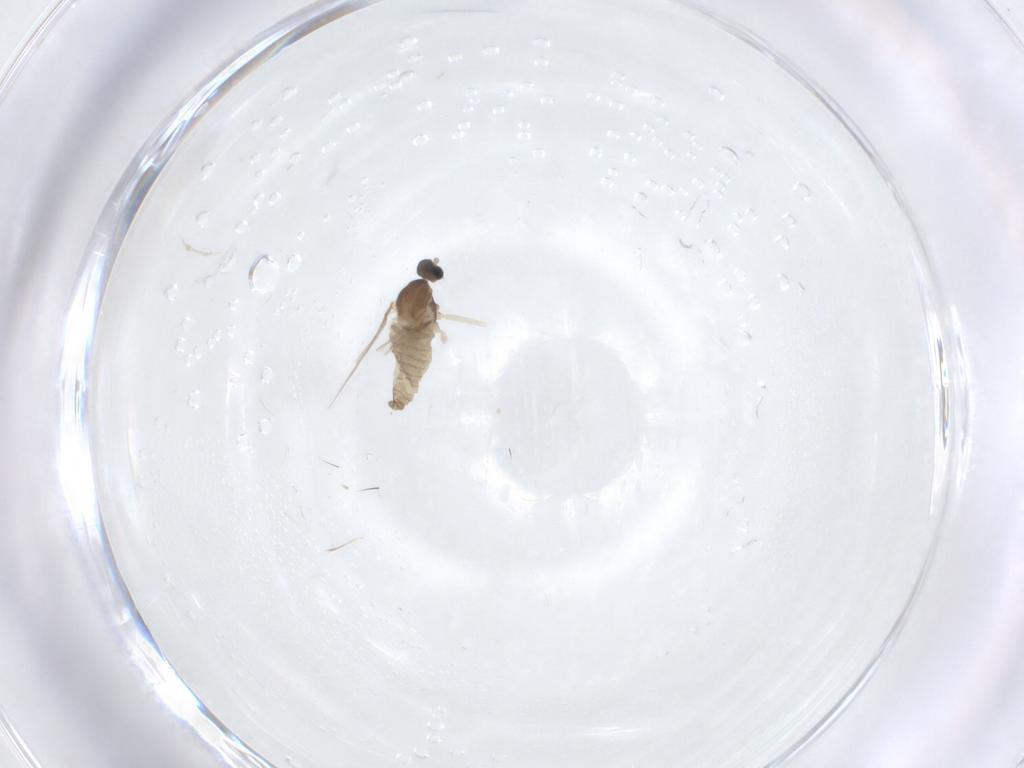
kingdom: Animalia
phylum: Arthropoda
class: Insecta
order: Diptera
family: Cecidomyiidae
